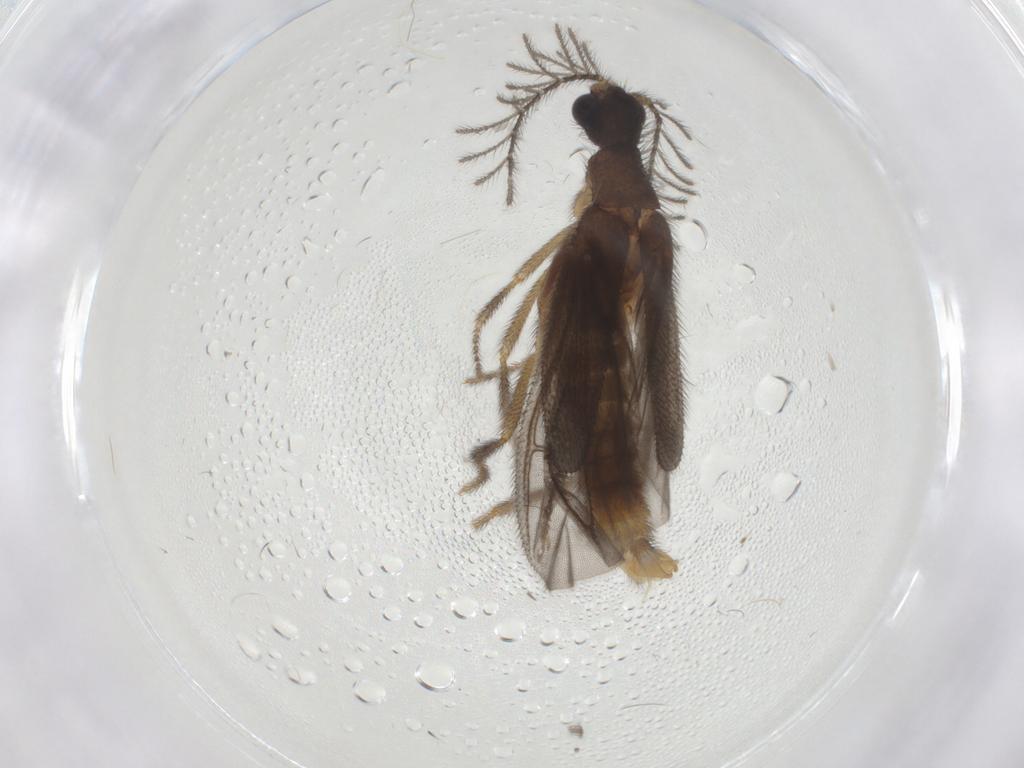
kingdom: Animalia
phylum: Arthropoda
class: Insecta
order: Coleoptera
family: Phengodidae
